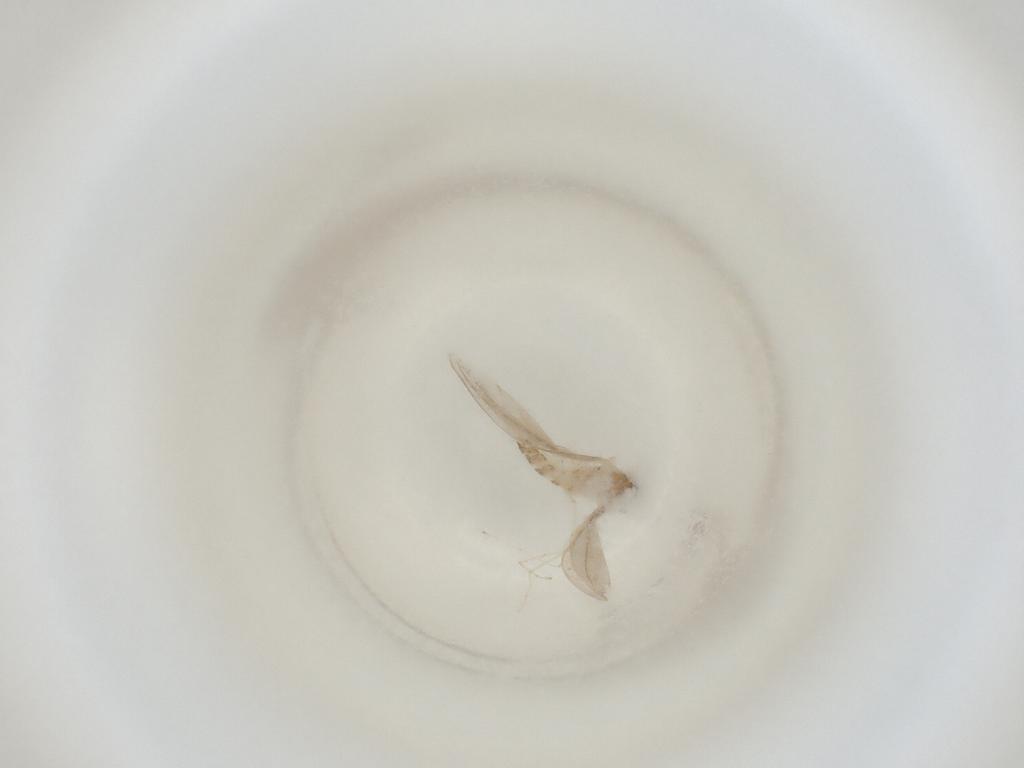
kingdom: Animalia
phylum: Arthropoda
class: Insecta
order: Diptera
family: Cecidomyiidae
